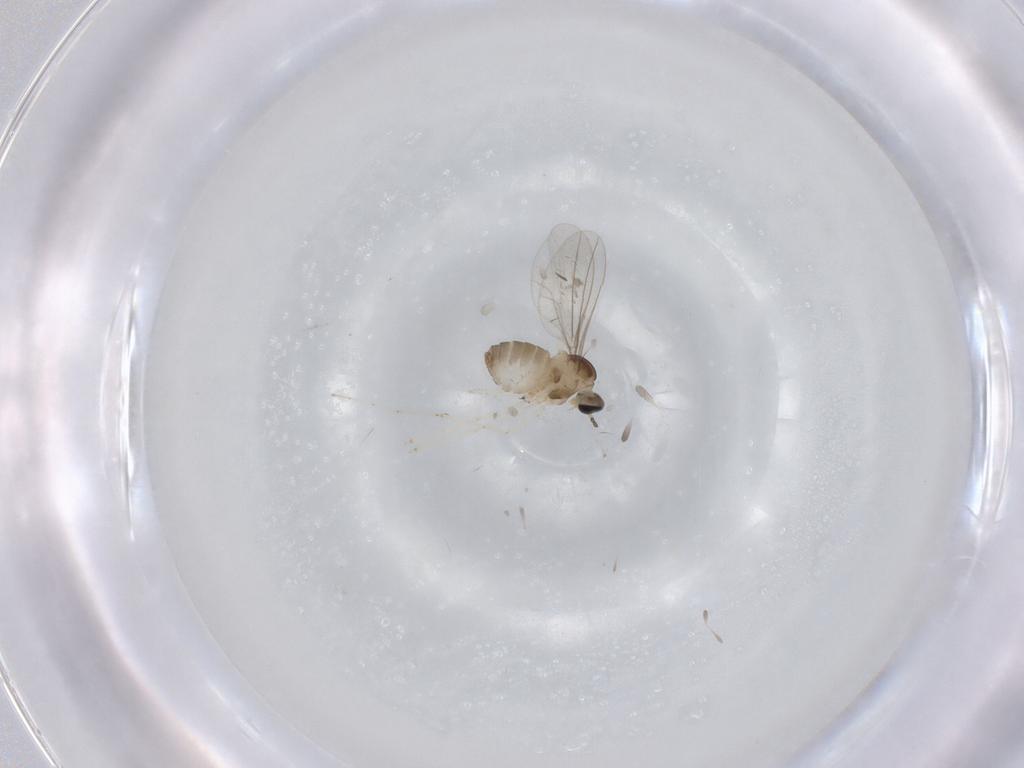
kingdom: Animalia
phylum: Arthropoda
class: Insecta
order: Diptera
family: Sciaridae
